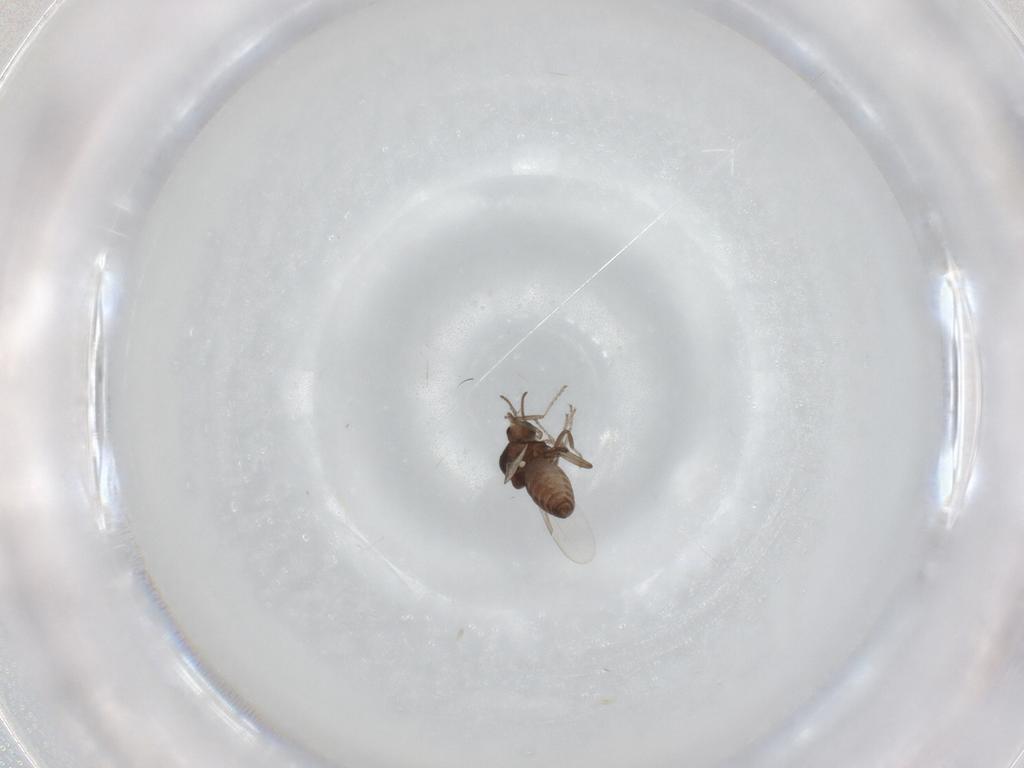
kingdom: Animalia
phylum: Arthropoda
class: Insecta
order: Diptera
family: Ceratopogonidae
